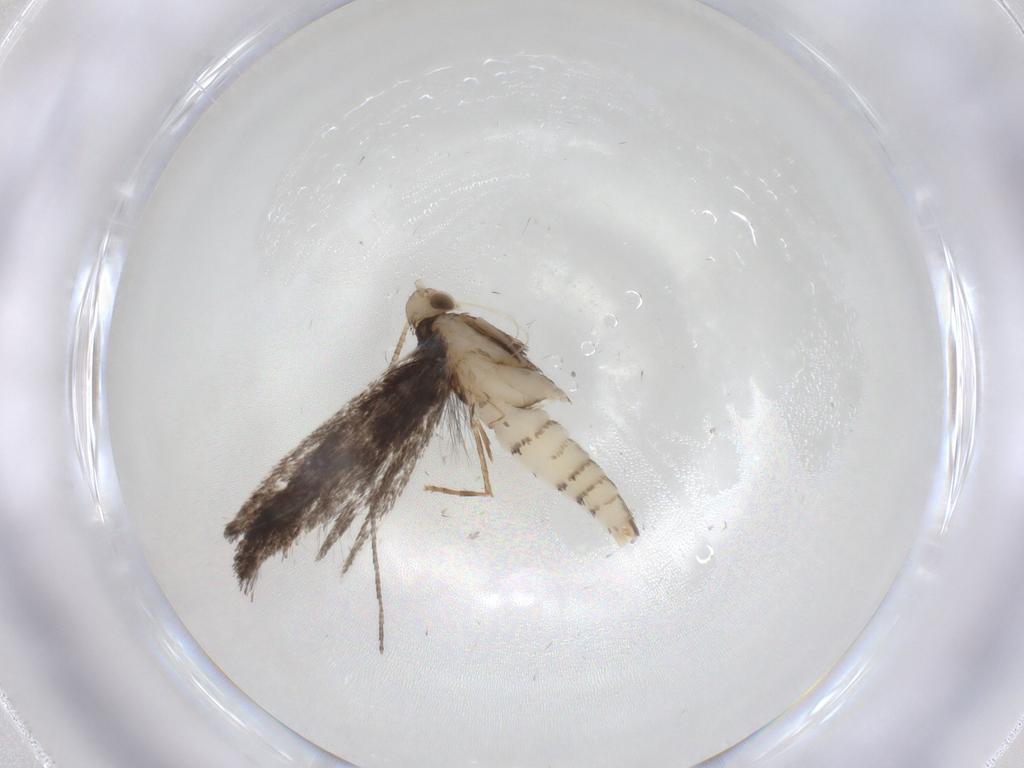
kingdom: Animalia
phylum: Arthropoda
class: Insecta
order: Lepidoptera
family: Gracillariidae
